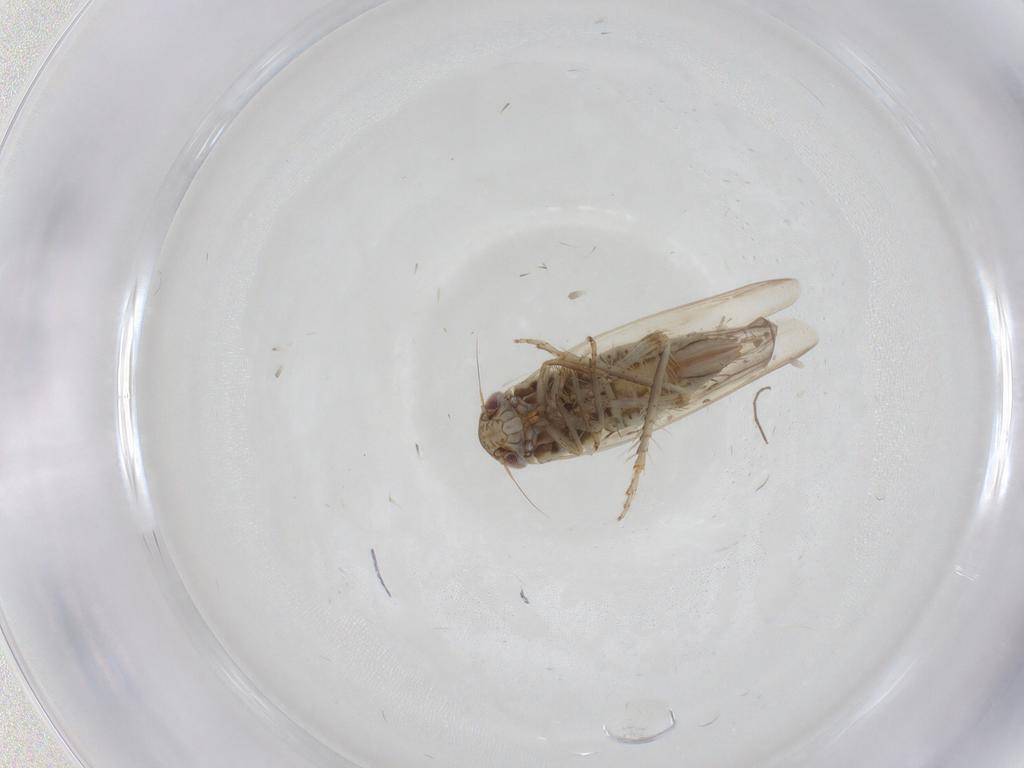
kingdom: Animalia
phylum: Arthropoda
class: Insecta
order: Hemiptera
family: Cicadellidae
